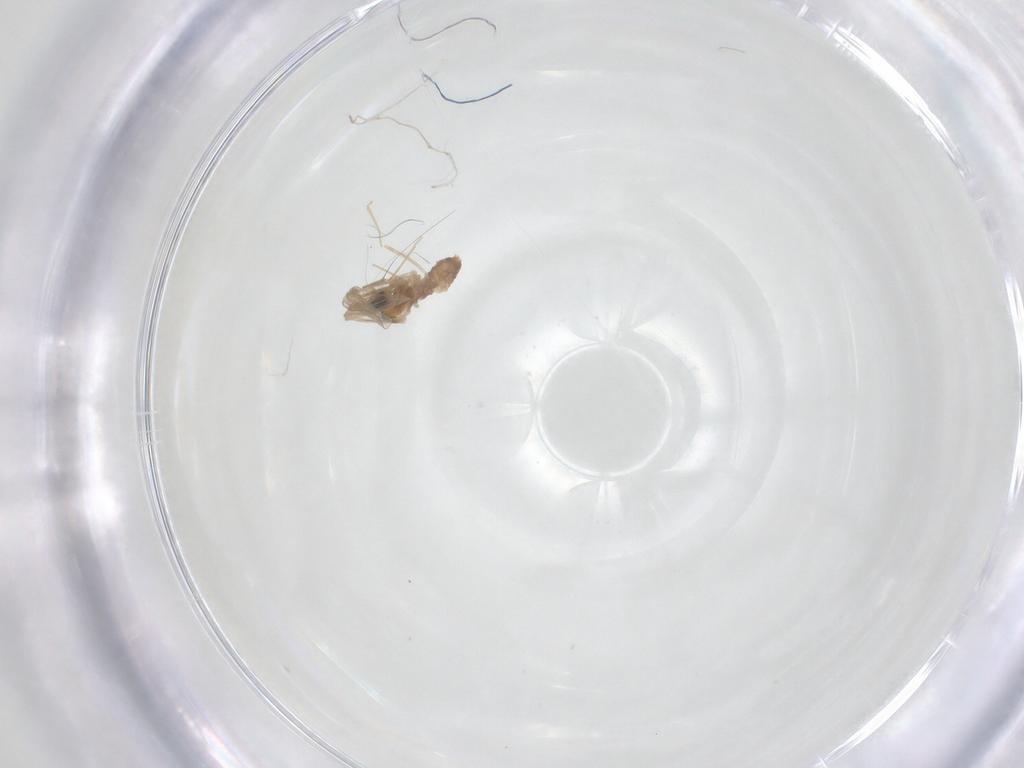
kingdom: Animalia
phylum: Arthropoda
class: Insecta
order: Diptera
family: Cecidomyiidae
